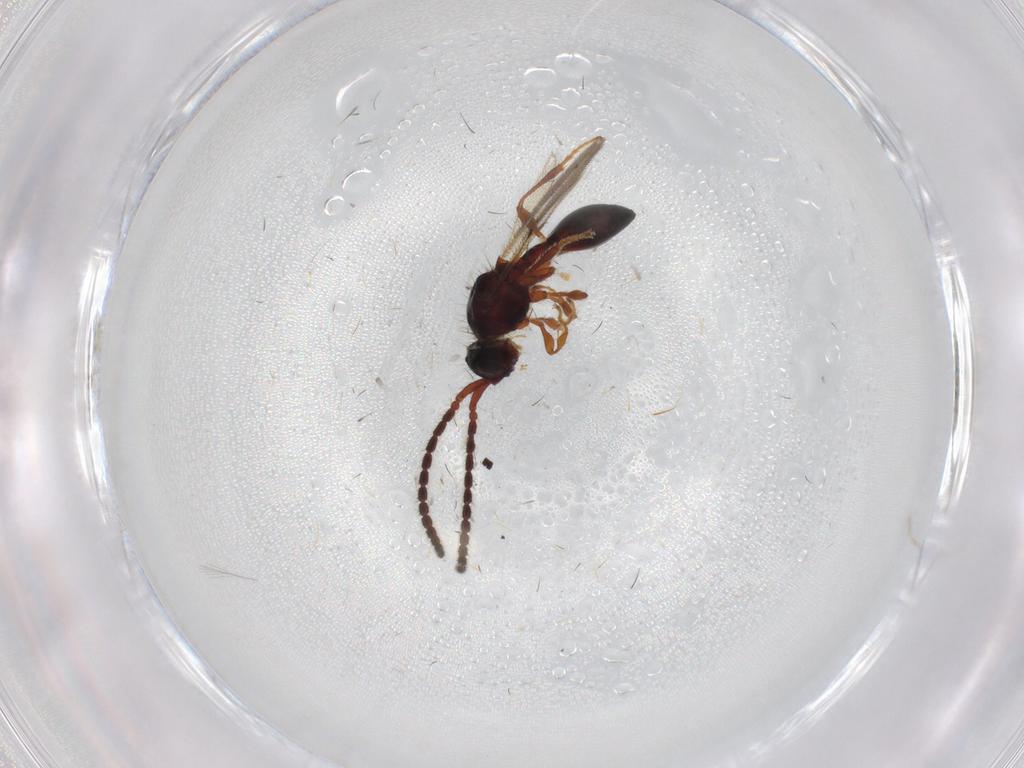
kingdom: Animalia
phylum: Arthropoda
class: Insecta
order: Hymenoptera
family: Diapriidae
